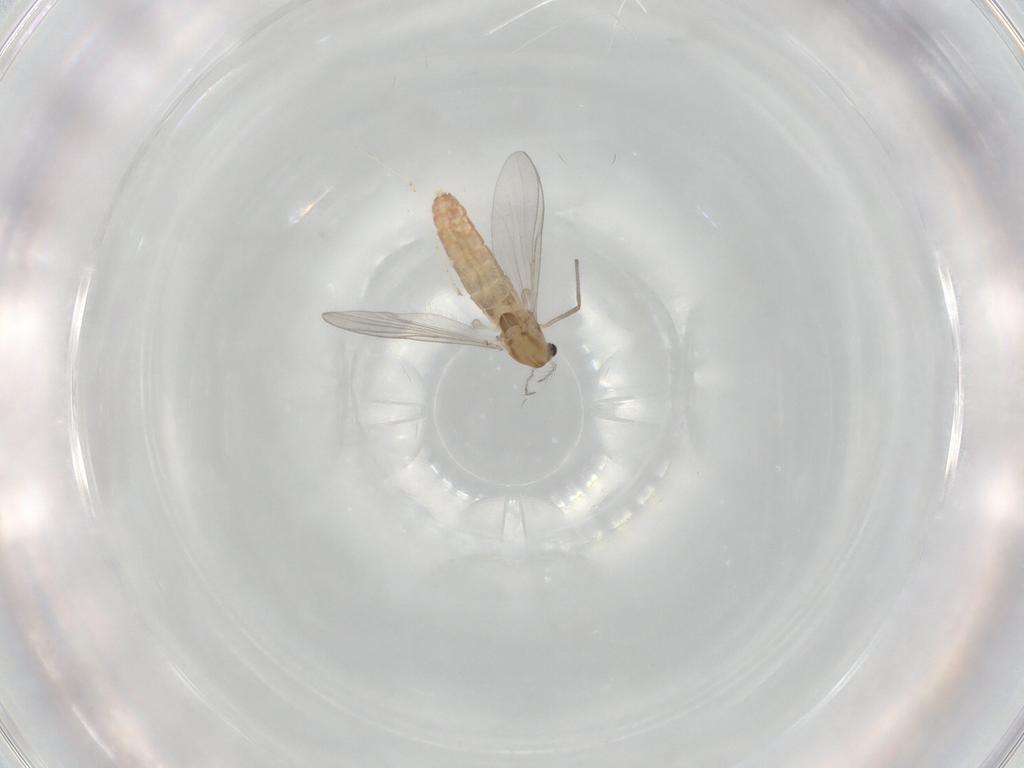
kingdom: Animalia
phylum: Arthropoda
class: Insecta
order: Diptera
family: Chironomidae
